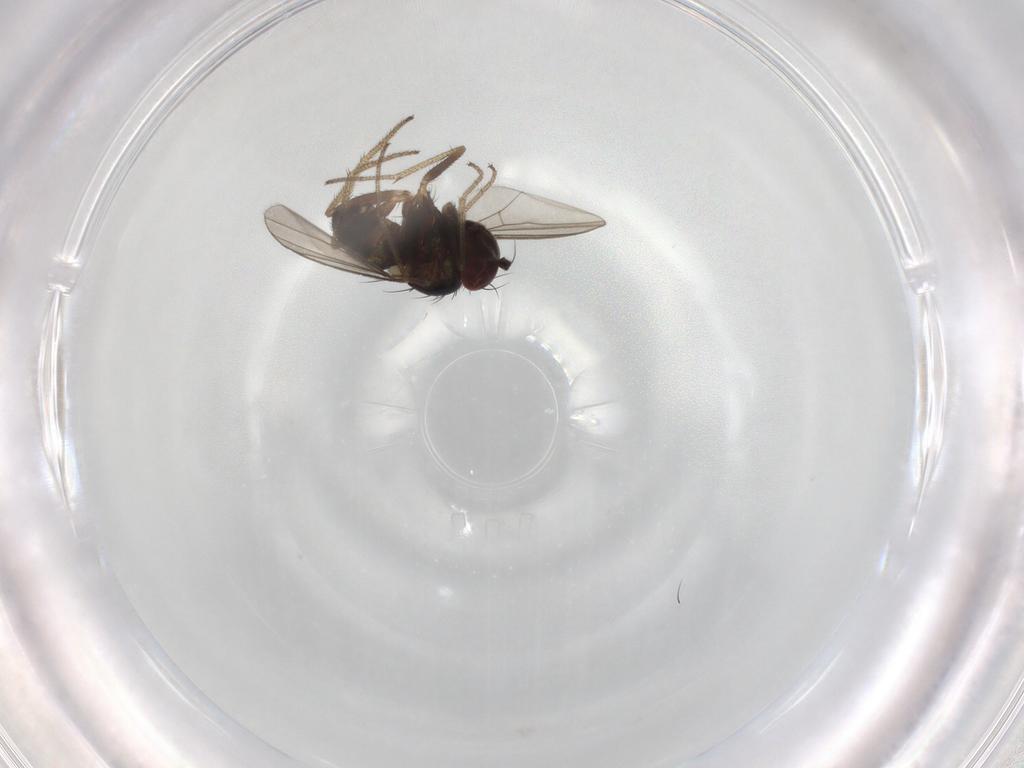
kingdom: Animalia
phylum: Arthropoda
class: Insecta
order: Diptera
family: Dolichopodidae
